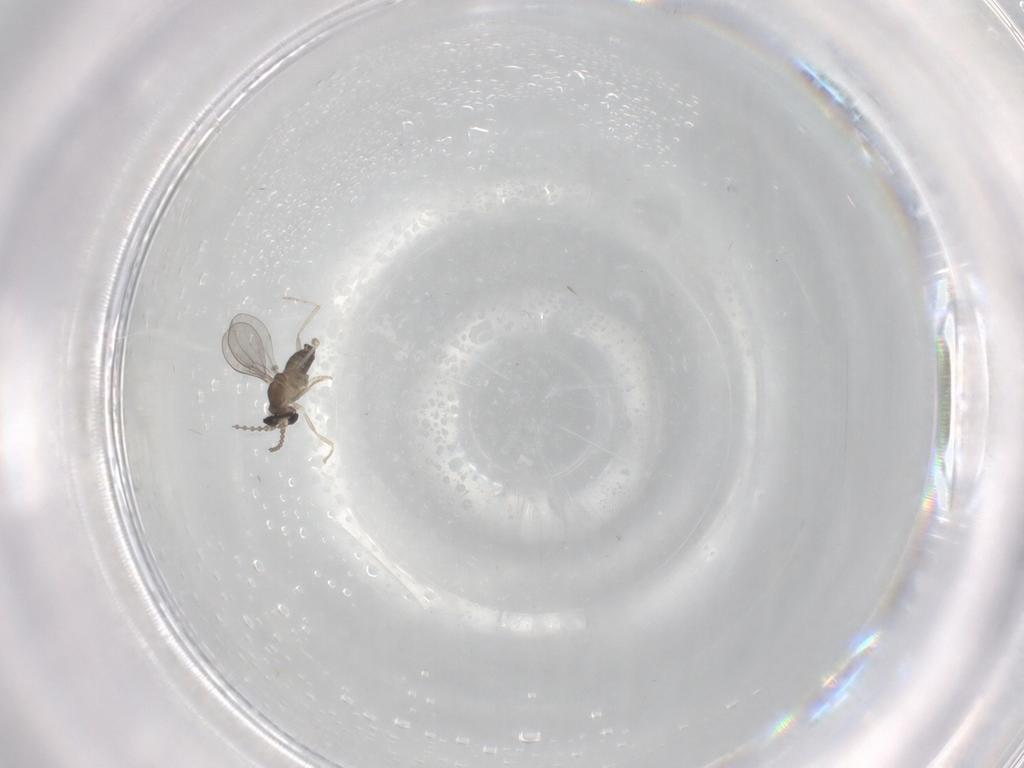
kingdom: Animalia
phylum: Arthropoda
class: Insecta
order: Diptera
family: Cecidomyiidae
